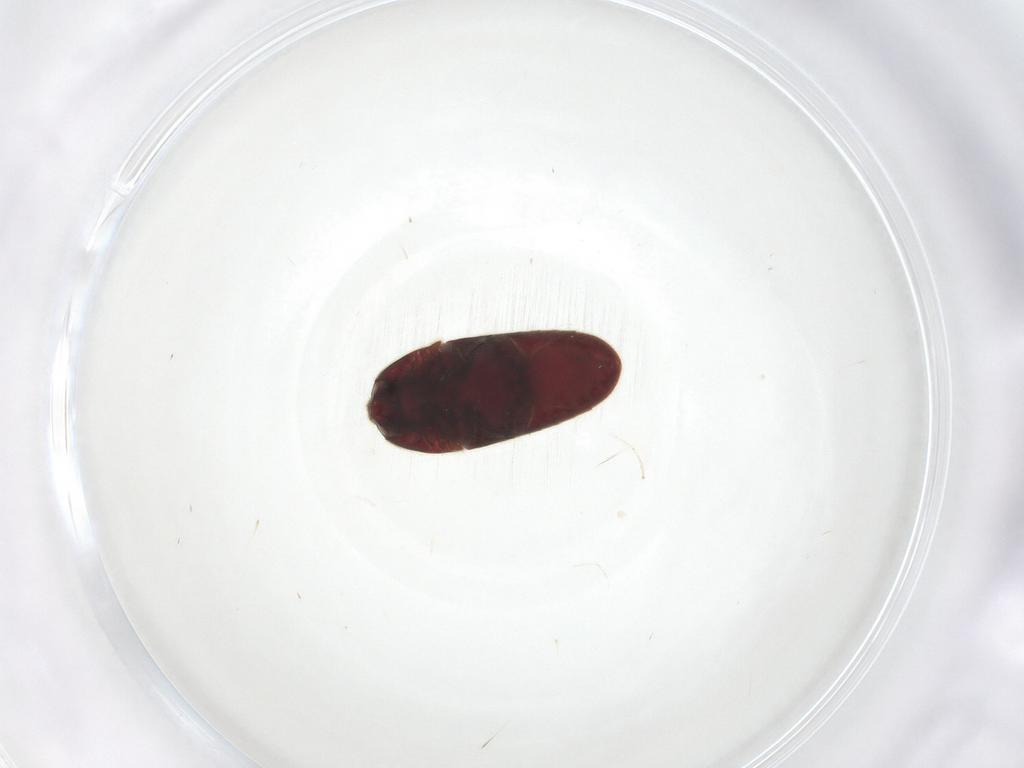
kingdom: Animalia
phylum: Arthropoda
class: Insecta
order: Coleoptera
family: Throscidae
